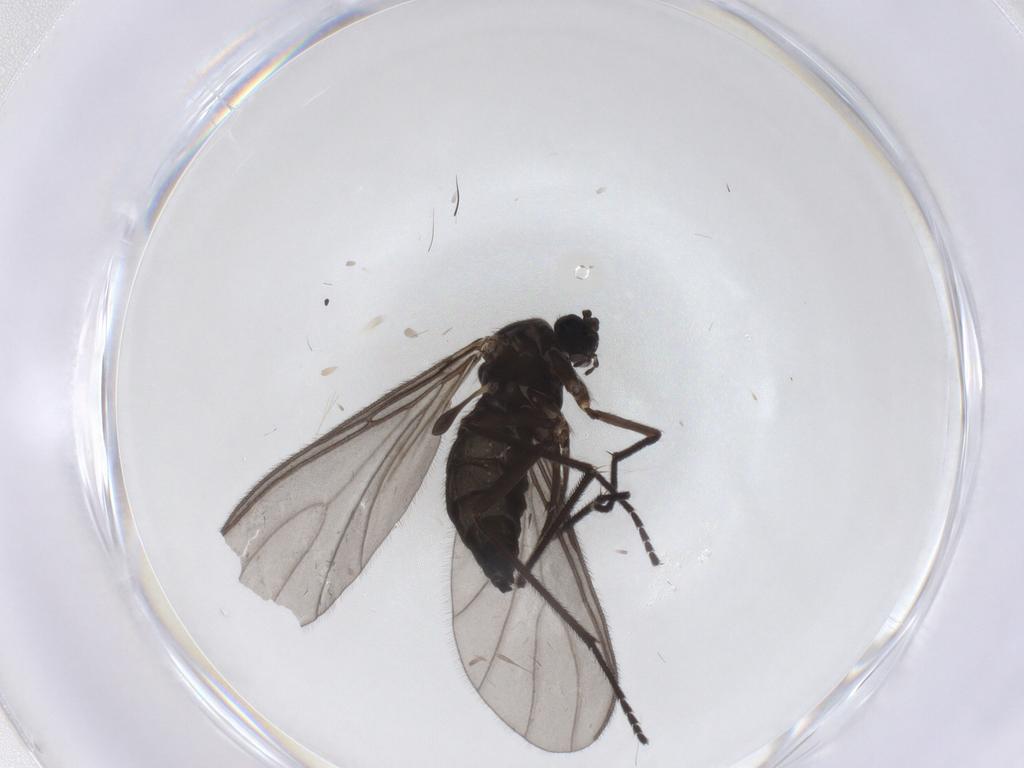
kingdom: Animalia
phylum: Arthropoda
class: Insecta
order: Diptera
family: Sciaridae
